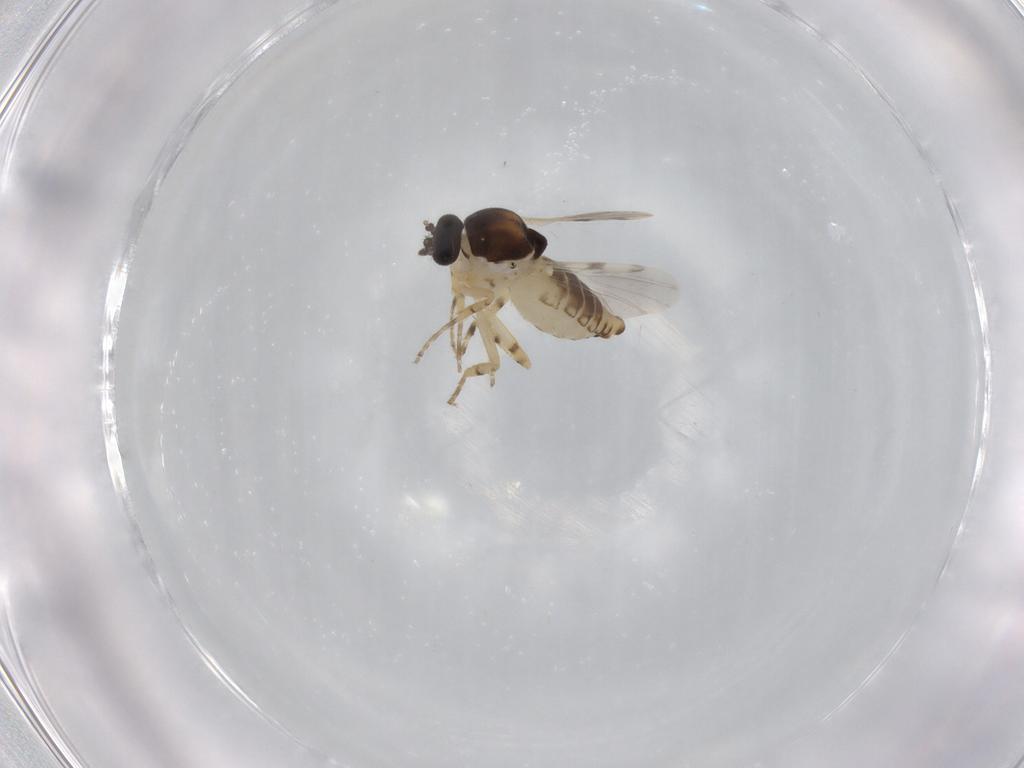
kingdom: Animalia
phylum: Arthropoda
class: Insecta
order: Diptera
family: Ceratopogonidae
